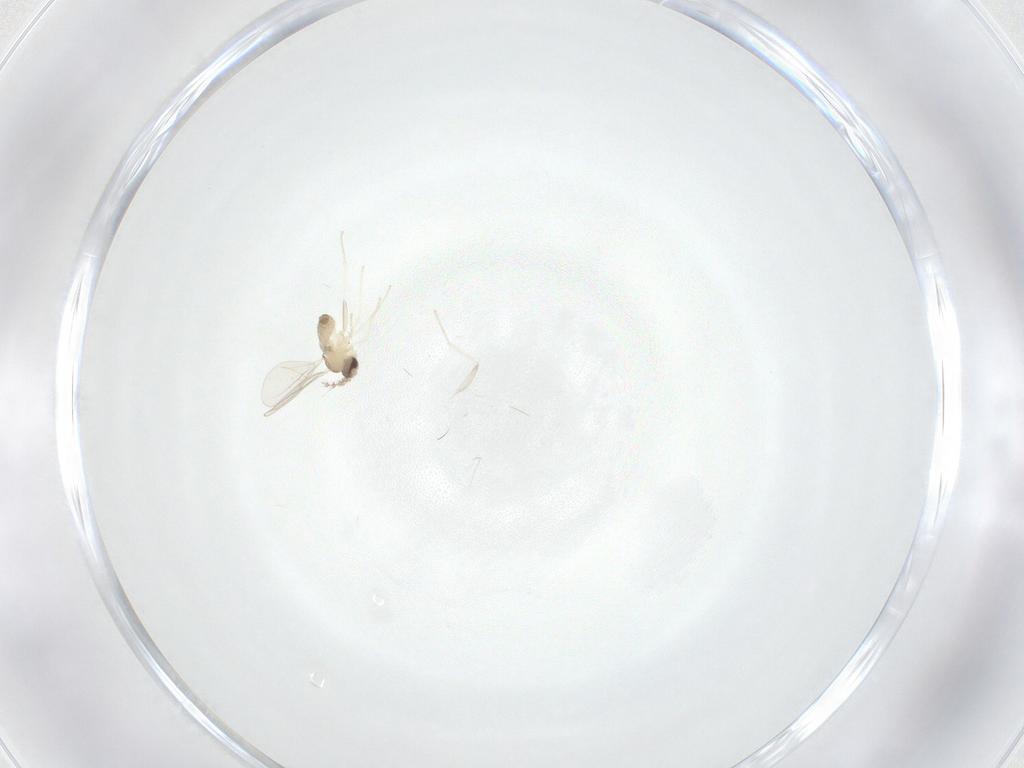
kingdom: Animalia
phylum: Arthropoda
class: Insecta
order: Diptera
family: Cecidomyiidae
